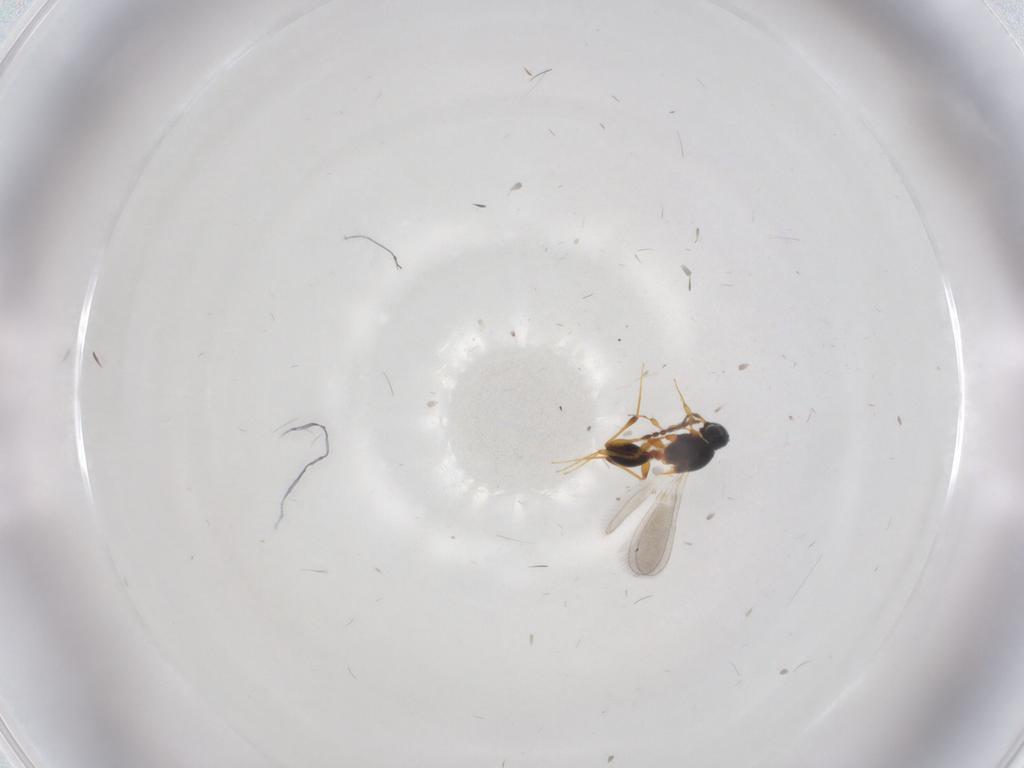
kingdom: Animalia
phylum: Arthropoda
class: Insecta
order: Hymenoptera
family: Platygastridae
